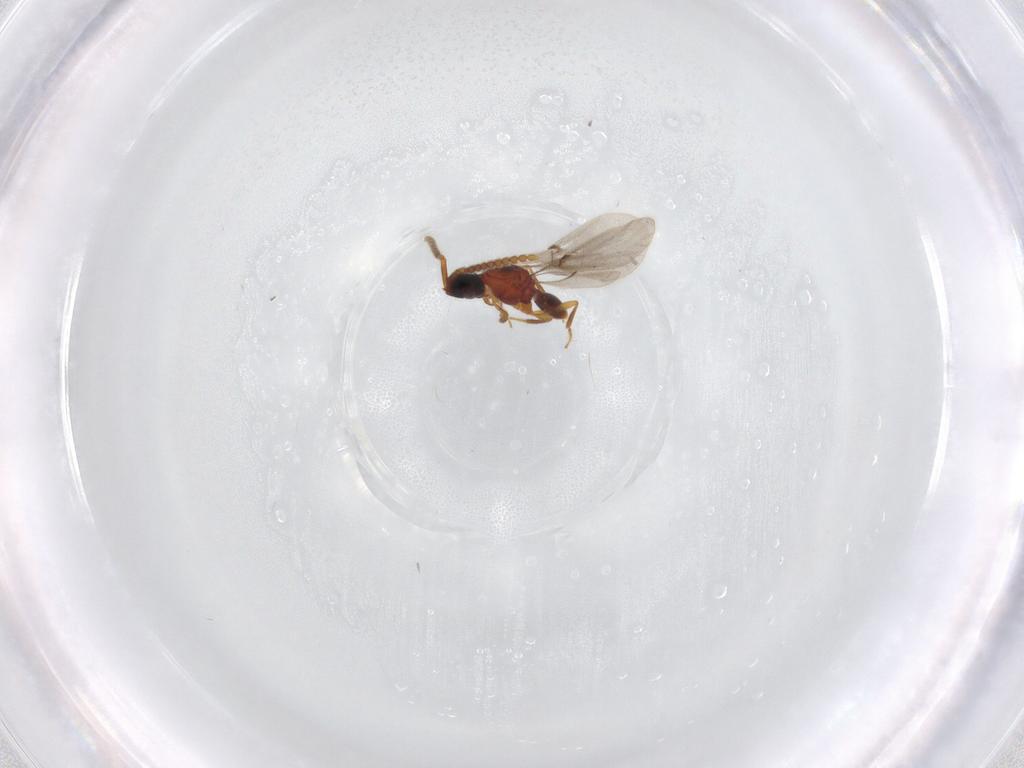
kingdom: Animalia
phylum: Arthropoda
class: Insecta
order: Hymenoptera
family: Diapriidae
